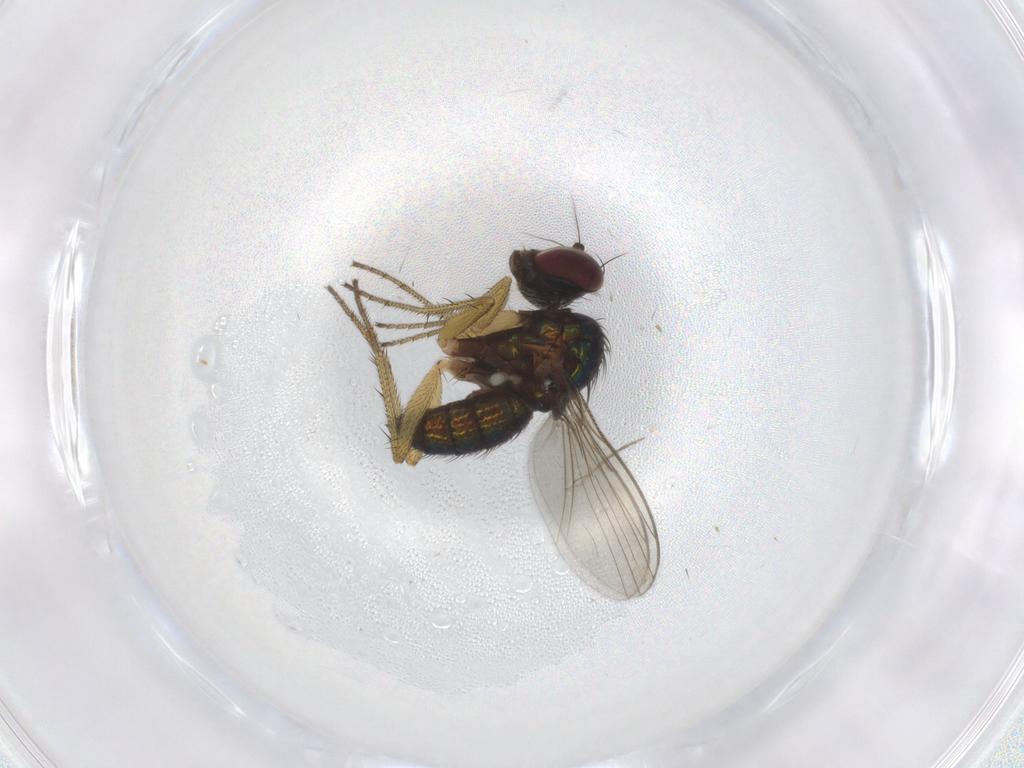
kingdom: Animalia
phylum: Arthropoda
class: Insecta
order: Diptera
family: Dolichopodidae
